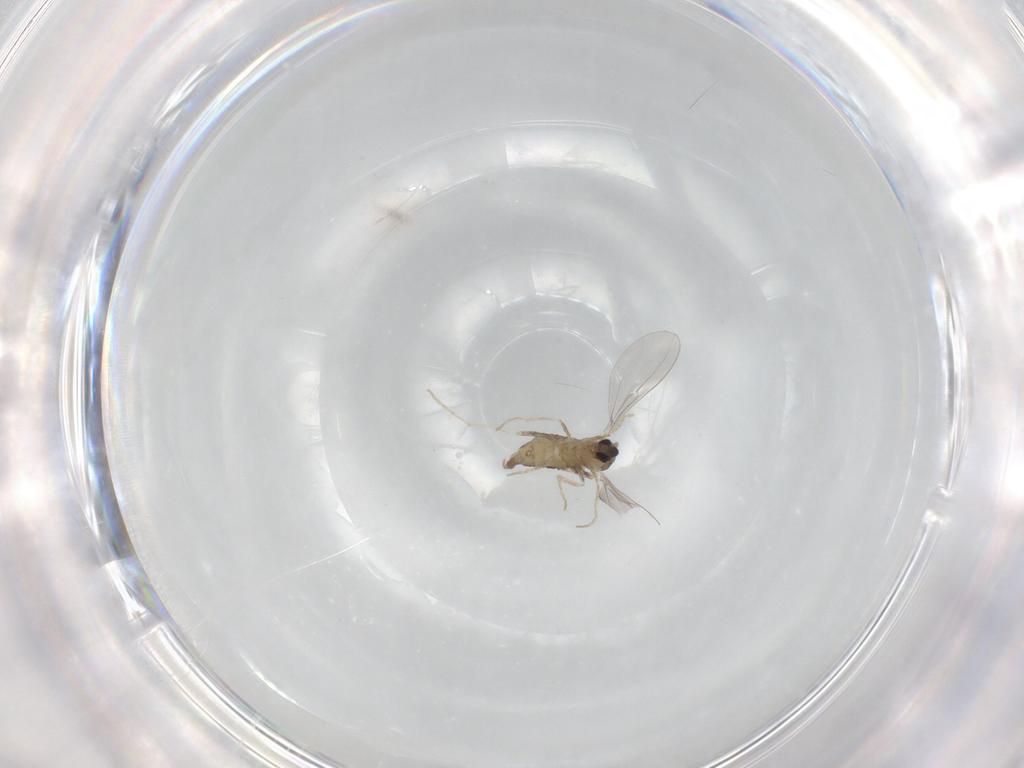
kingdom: Animalia
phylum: Arthropoda
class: Insecta
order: Diptera
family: Cecidomyiidae
